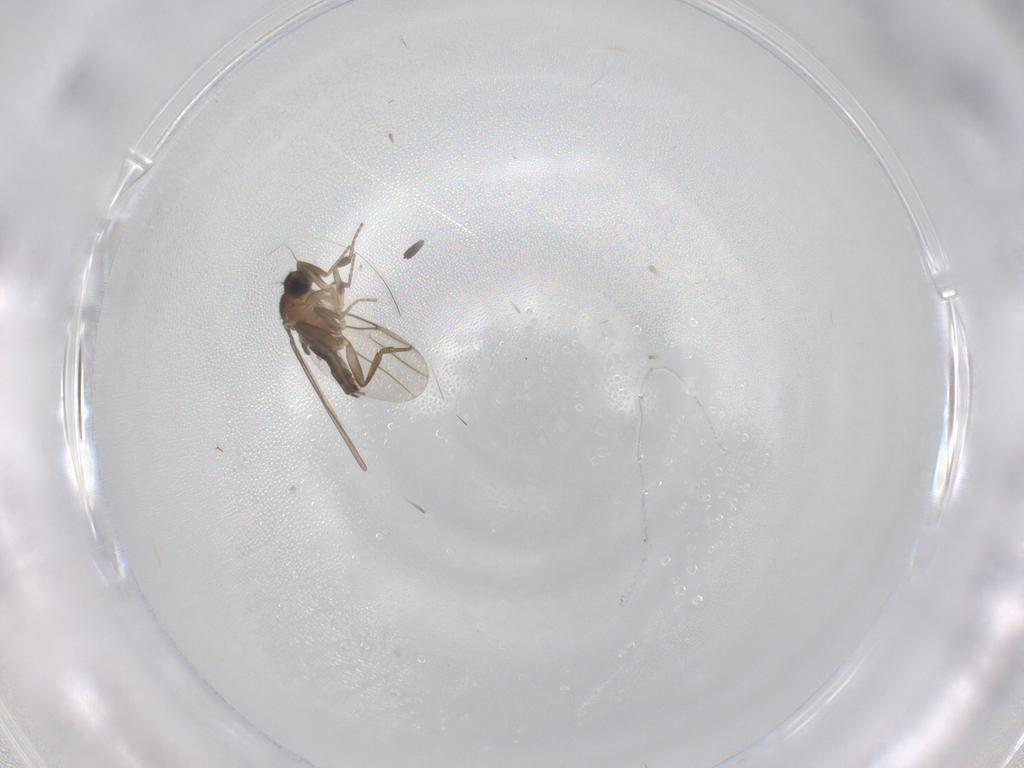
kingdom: Animalia
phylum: Arthropoda
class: Insecta
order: Diptera
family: Phoridae
